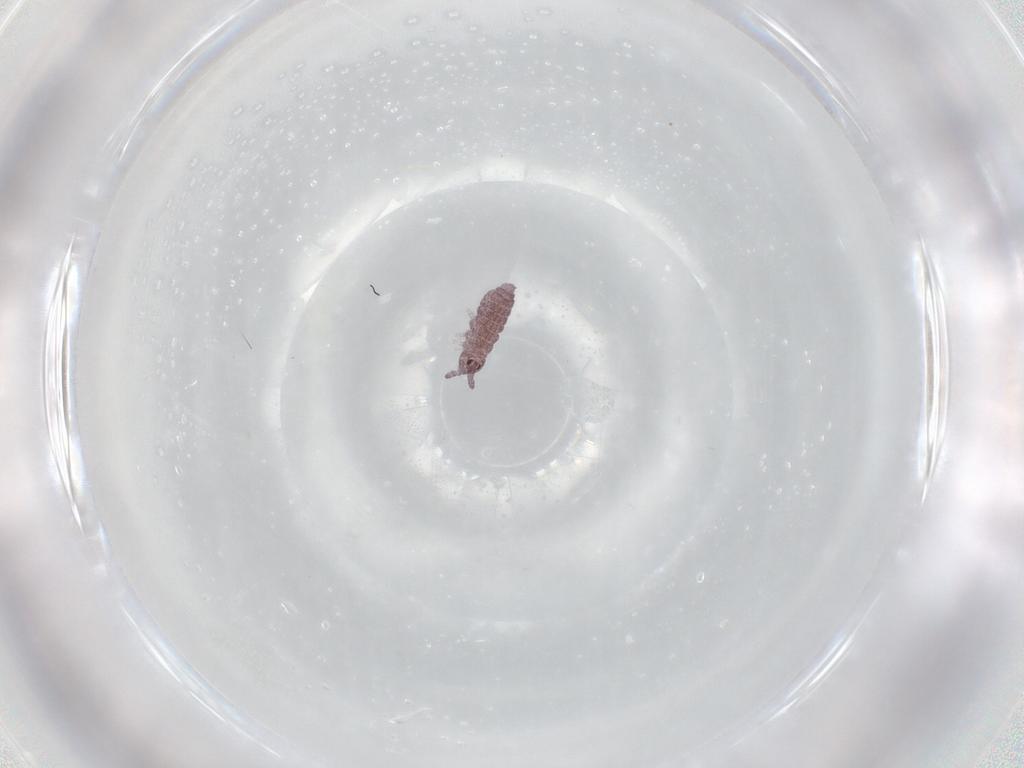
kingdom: Animalia
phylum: Arthropoda
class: Collembola
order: Poduromorpha
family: Hypogastruridae
